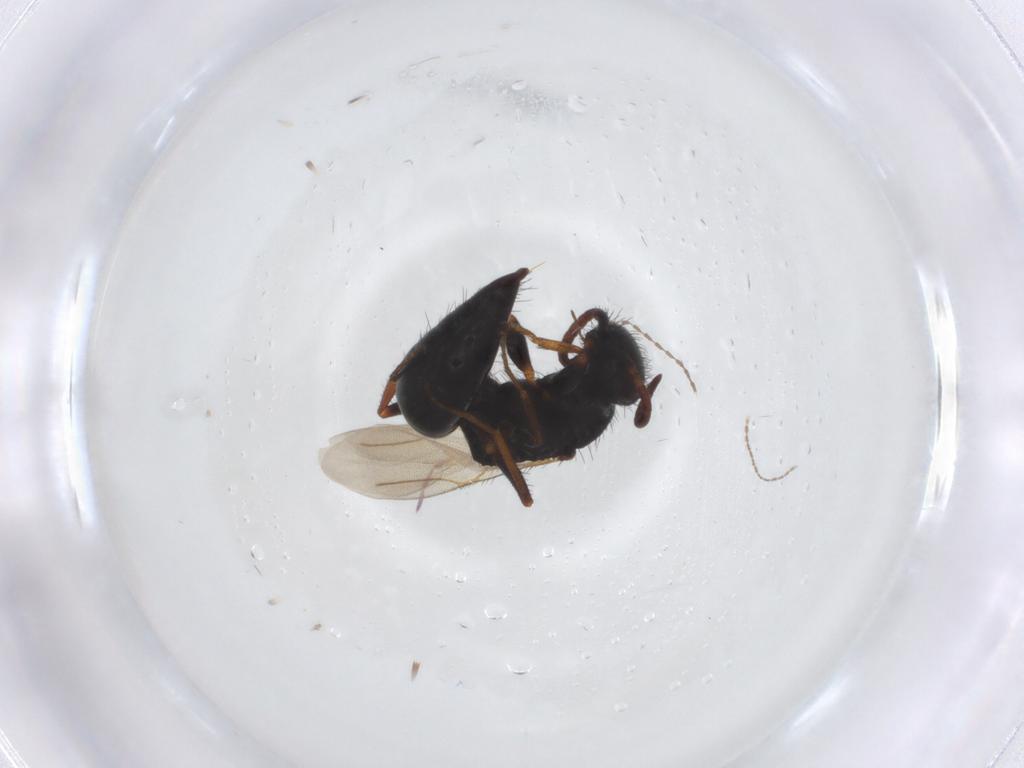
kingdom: Animalia
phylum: Arthropoda
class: Insecta
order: Hymenoptera
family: Bethylidae
